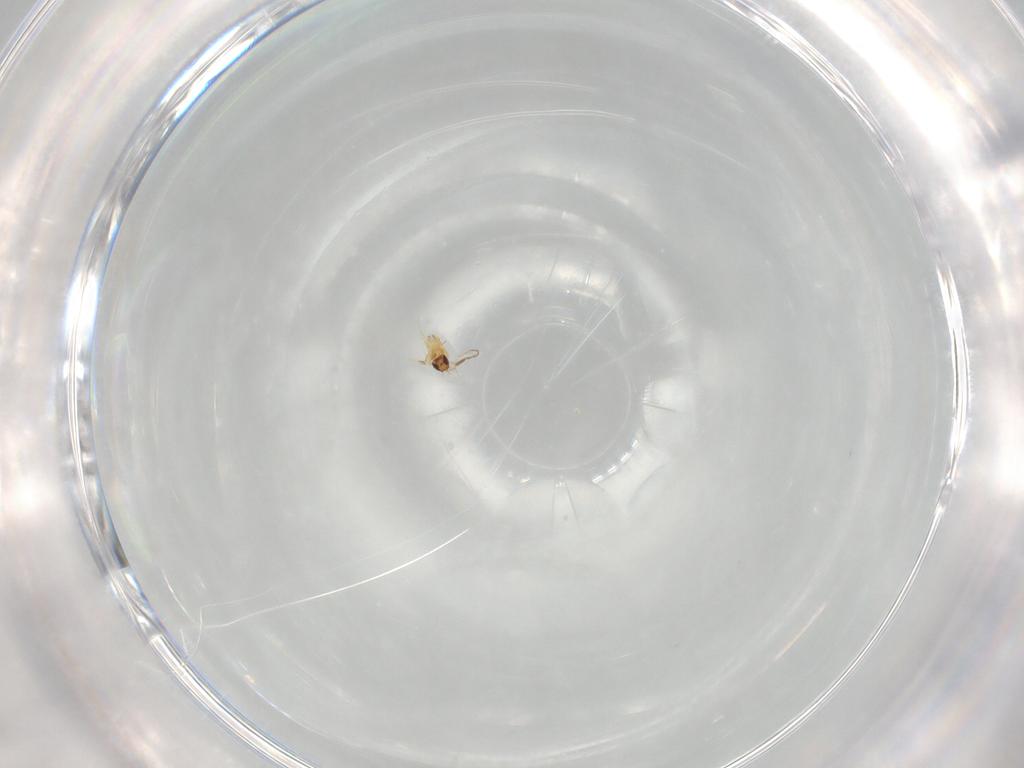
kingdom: Animalia
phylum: Arthropoda
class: Insecta
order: Hymenoptera
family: Mymaridae
